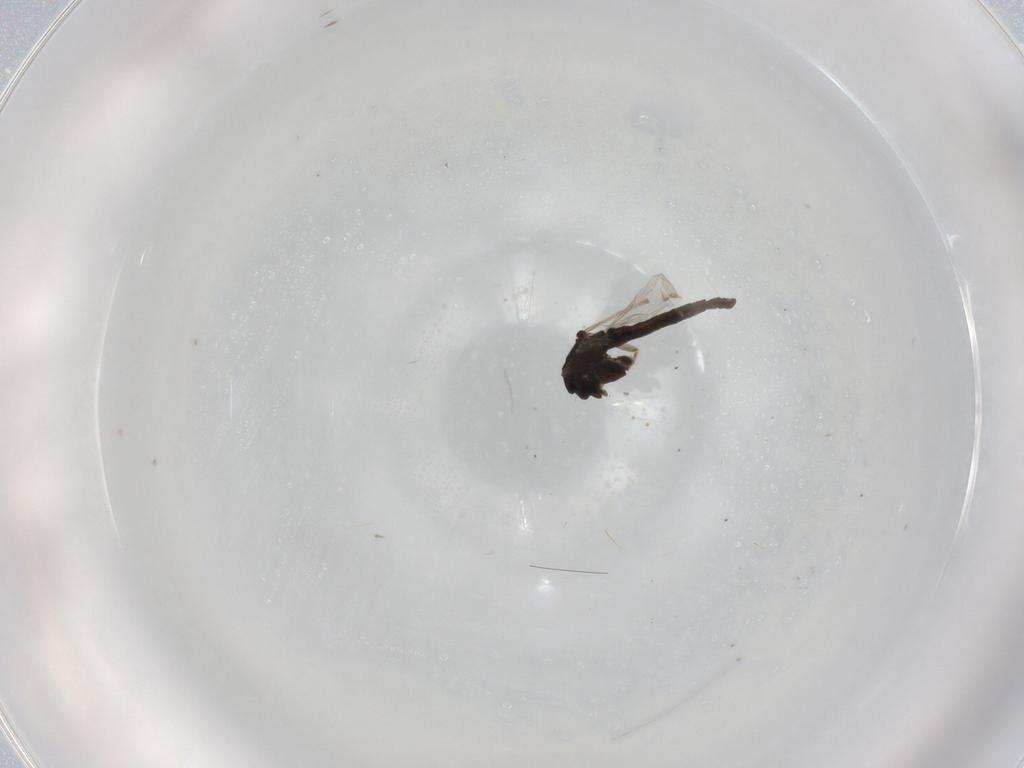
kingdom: Animalia
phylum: Arthropoda
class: Insecta
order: Diptera
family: Chironomidae
